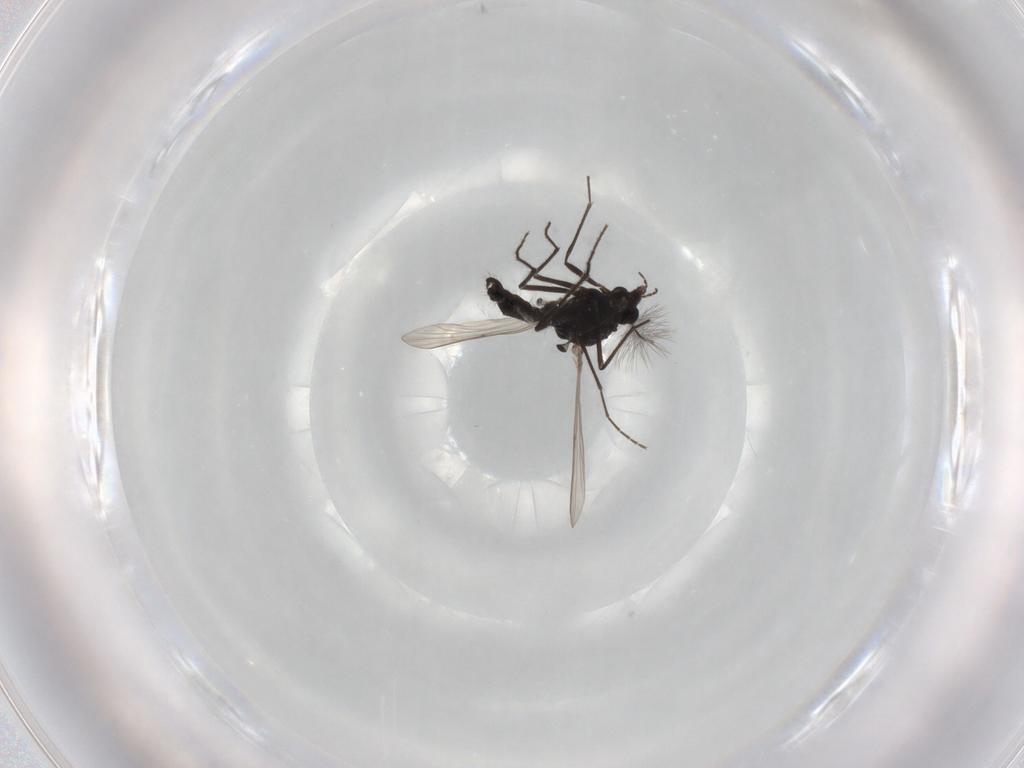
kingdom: Animalia
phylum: Arthropoda
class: Insecta
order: Diptera
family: Chironomidae
